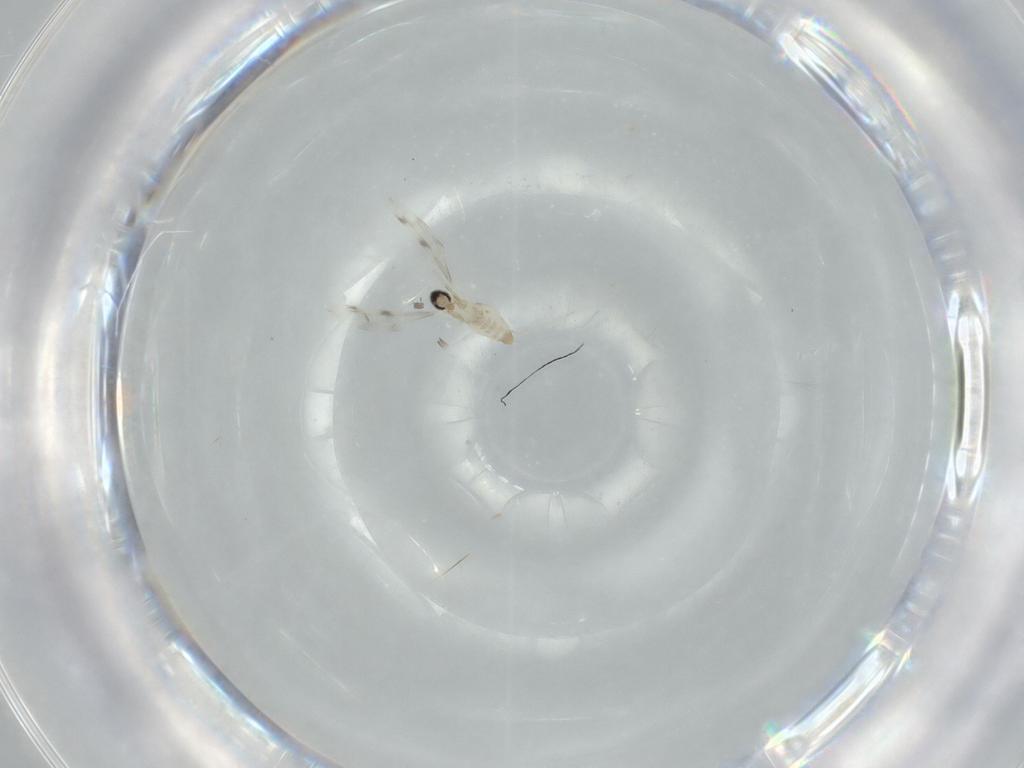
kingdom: Animalia
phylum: Arthropoda
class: Insecta
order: Diptera
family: Cecidomyiidae
